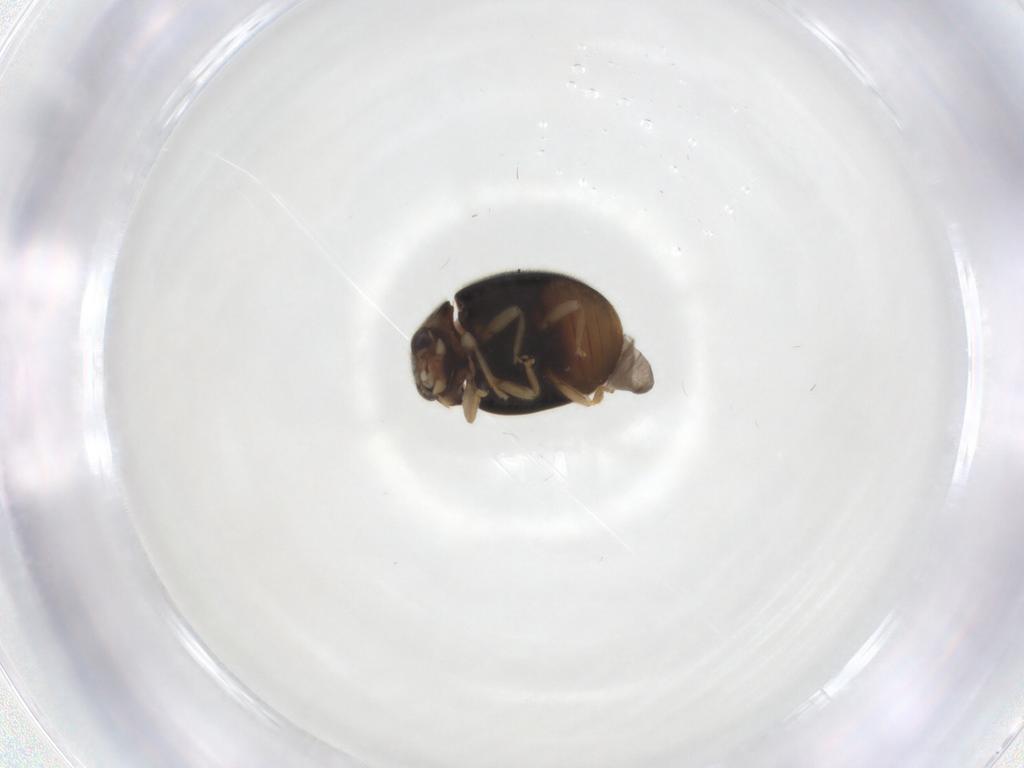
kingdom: Animalia
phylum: Arthropoda
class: Insecta
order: Coleoptera
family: Coccinellidae
